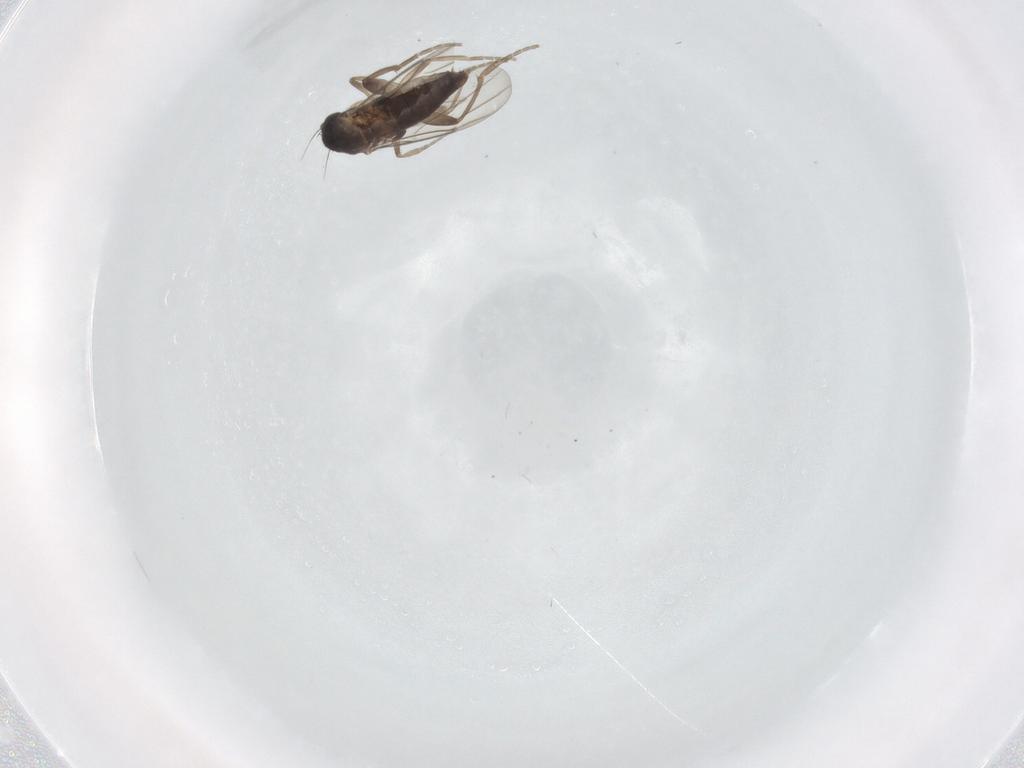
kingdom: Animalia
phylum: Arthropoda
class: Insecta
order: Diptera
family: Phoridae
